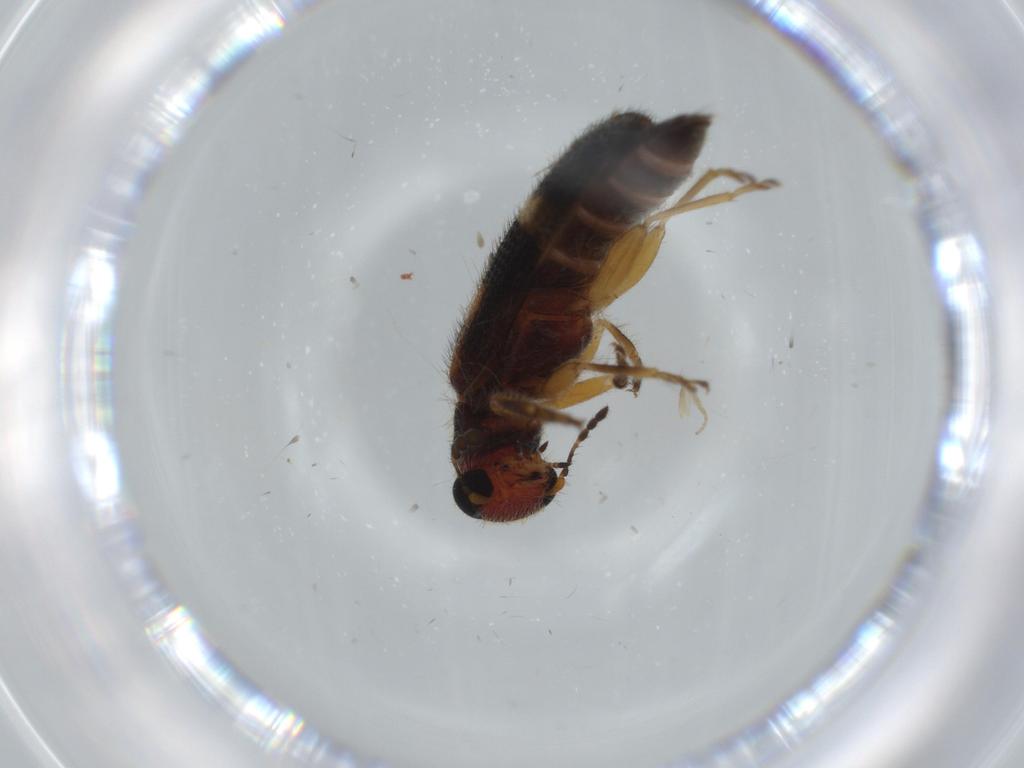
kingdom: Animalia
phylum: Arthropoda
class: Insecta
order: Coleoptera
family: Cleridae
